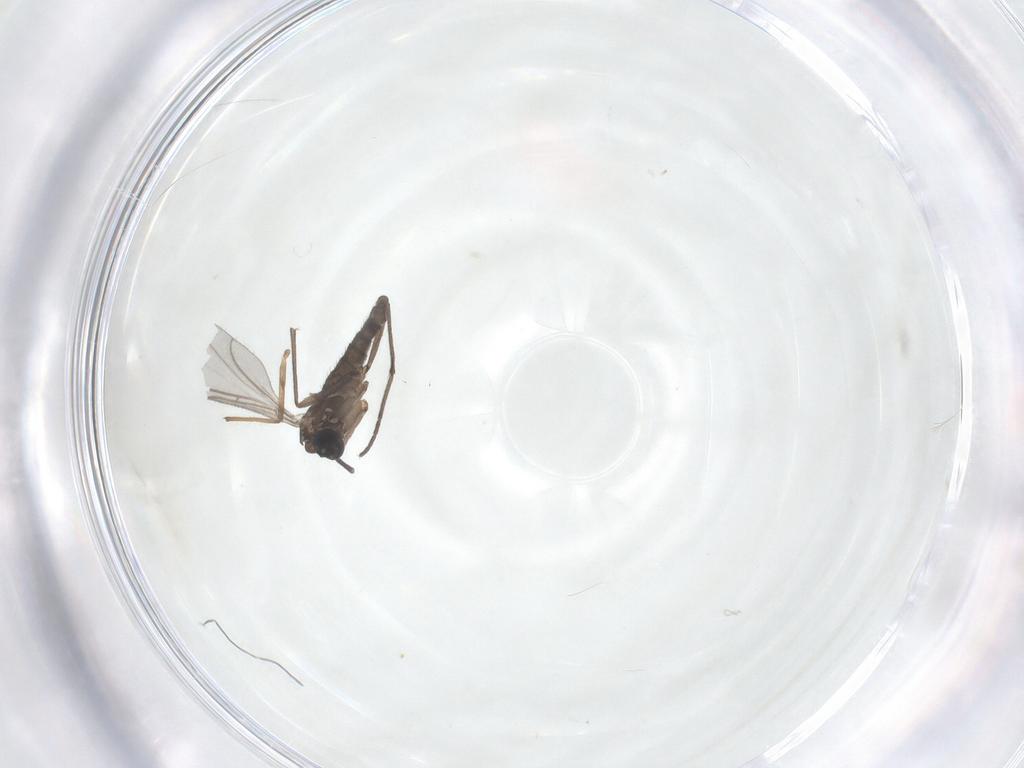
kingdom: Animalia
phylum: Arthropoda
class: Insecta
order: Diptera
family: Sciaridae
